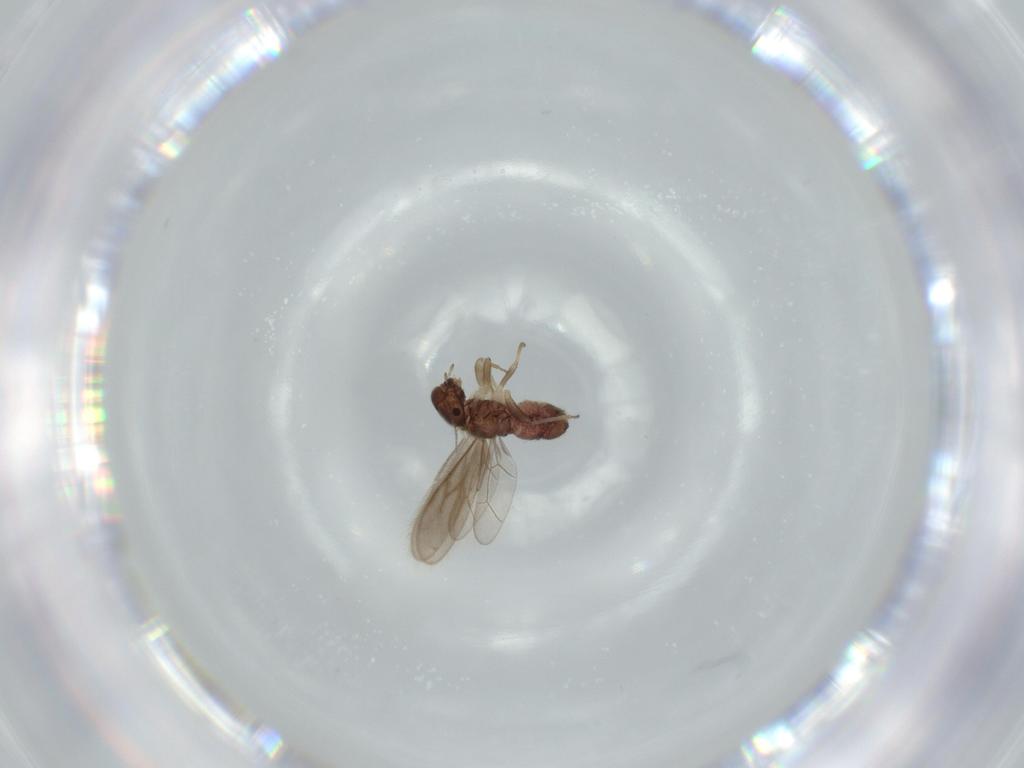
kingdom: Animalia
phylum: Arthropoda
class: Insecta
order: Psocodea
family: Archipsocidae
